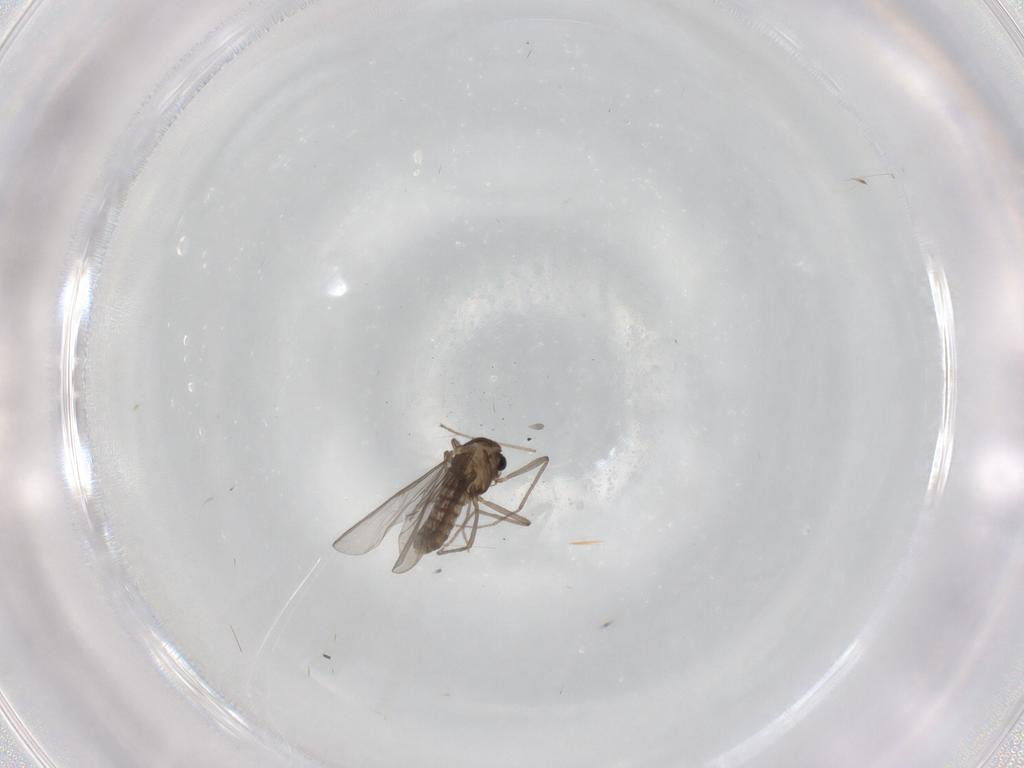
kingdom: Animalia
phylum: Arthropoda
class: Insecta
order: Diptera
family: Chironomidae
